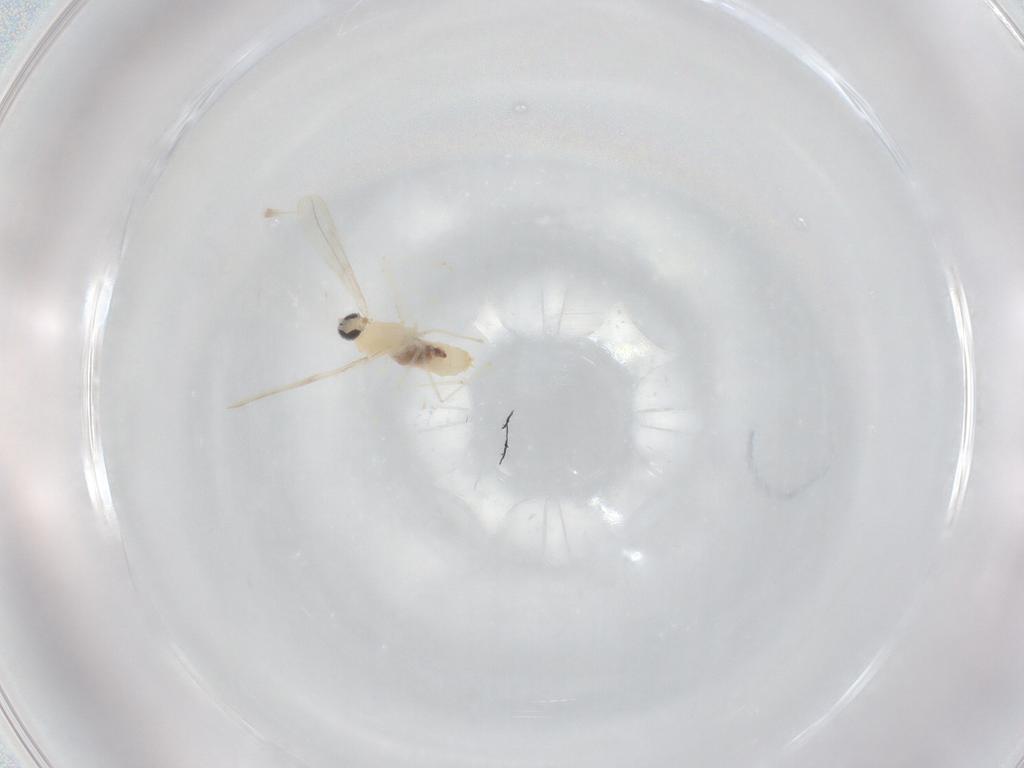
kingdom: Animalia
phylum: Arthropoda
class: Insecta
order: Diptera
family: Cecidomyiidae
